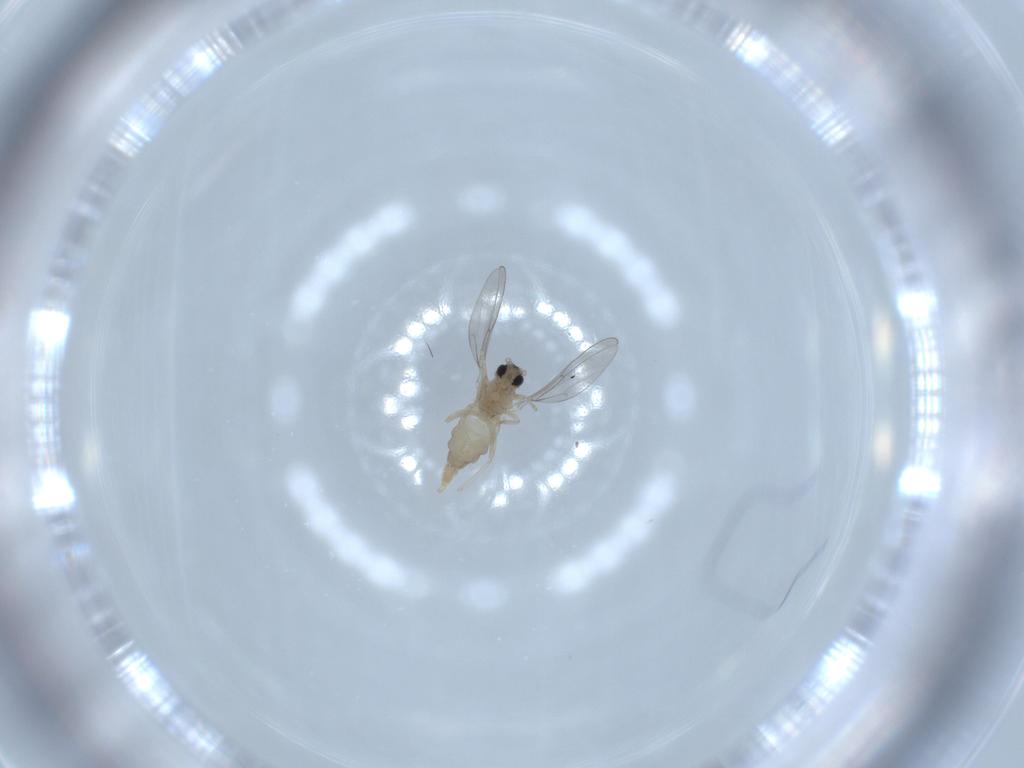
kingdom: Animalia
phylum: Arthropoda
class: Insecta
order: Diptera
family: Cecidomyiidae
